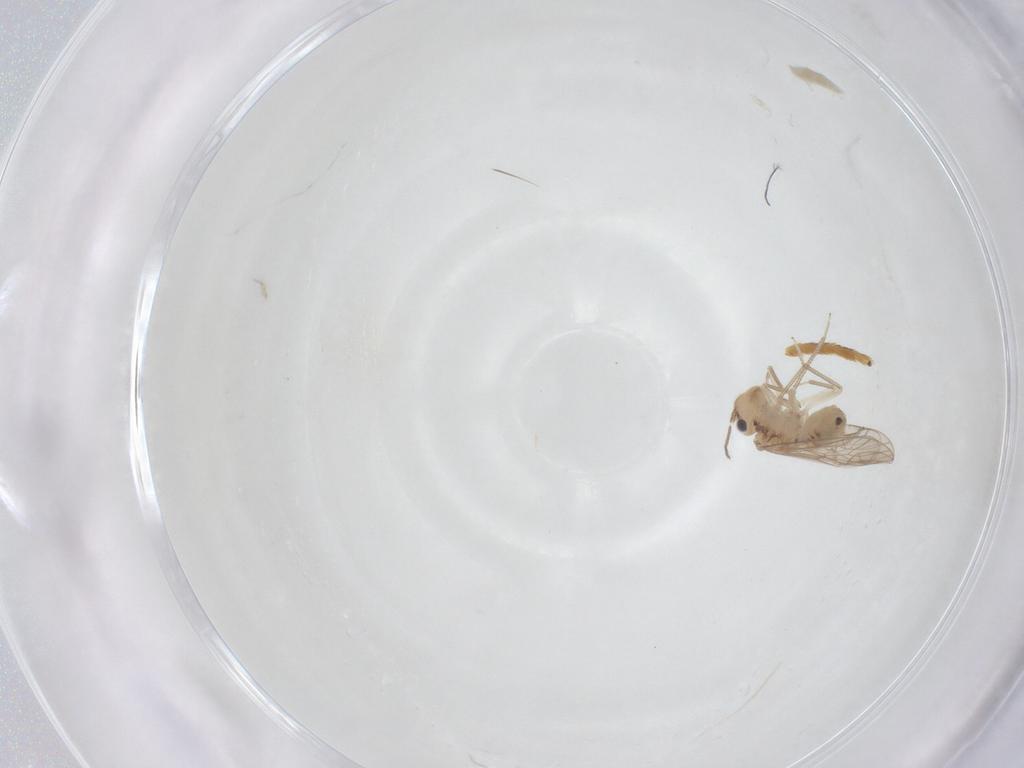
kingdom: Animalia
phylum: Arthropoda
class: Insecta
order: Psocodea
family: Ectopsocidae
